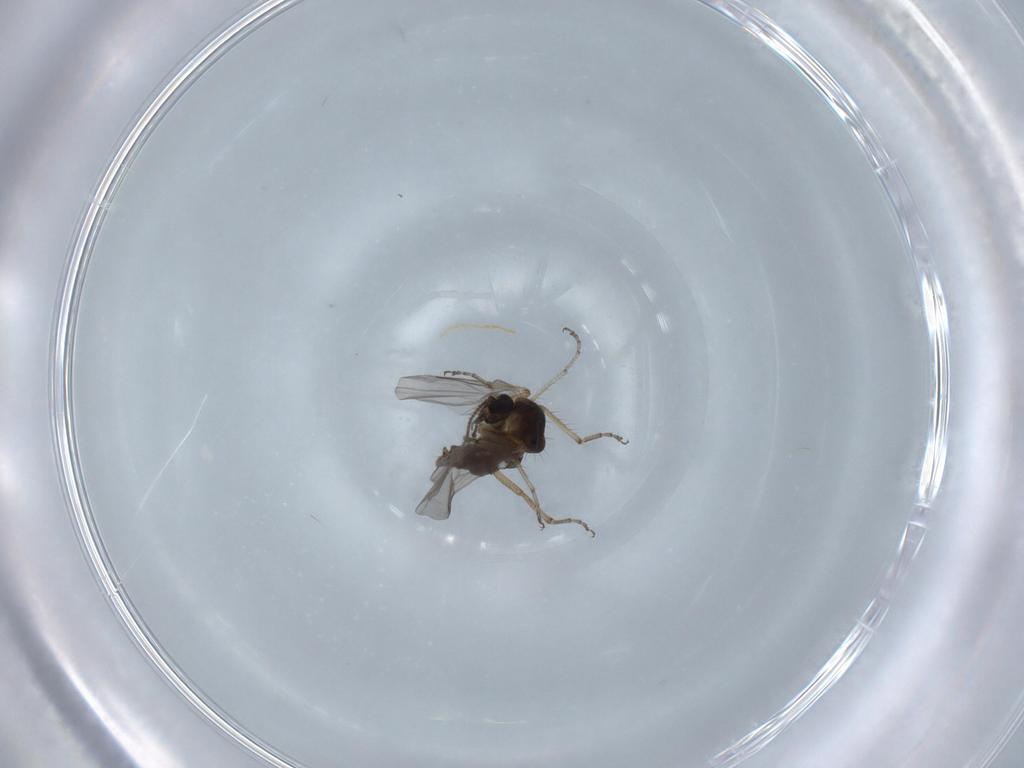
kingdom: Animalia
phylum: Arthropoda
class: Insecta
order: Diptera
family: Ceratopogonidae
